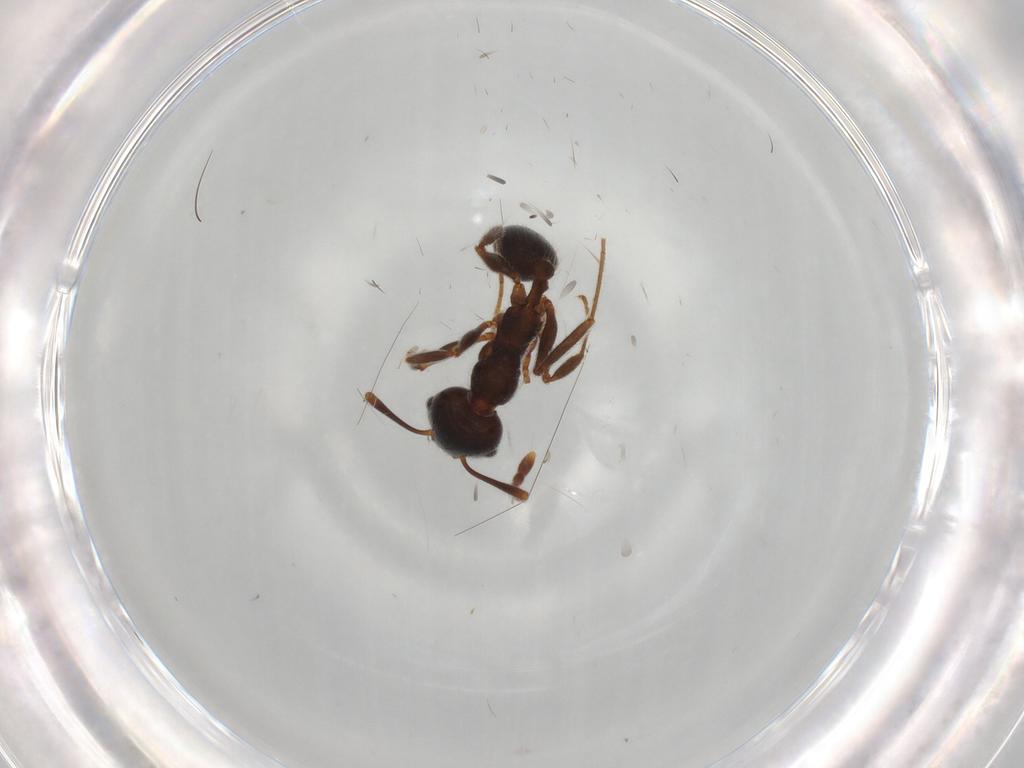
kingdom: Animalia
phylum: Arthropoda
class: Insecta
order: Hymenoptera
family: Formicidae
